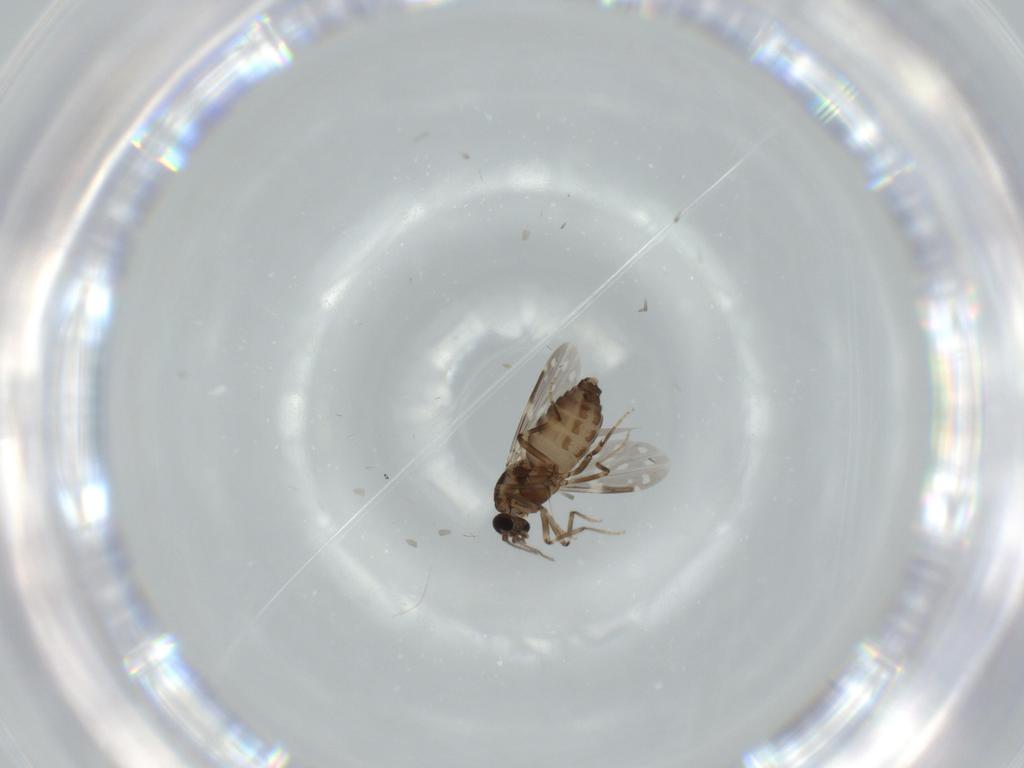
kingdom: Animalia
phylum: Arthropoda
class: Insecta
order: Diptera
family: Ceratopogonidae
